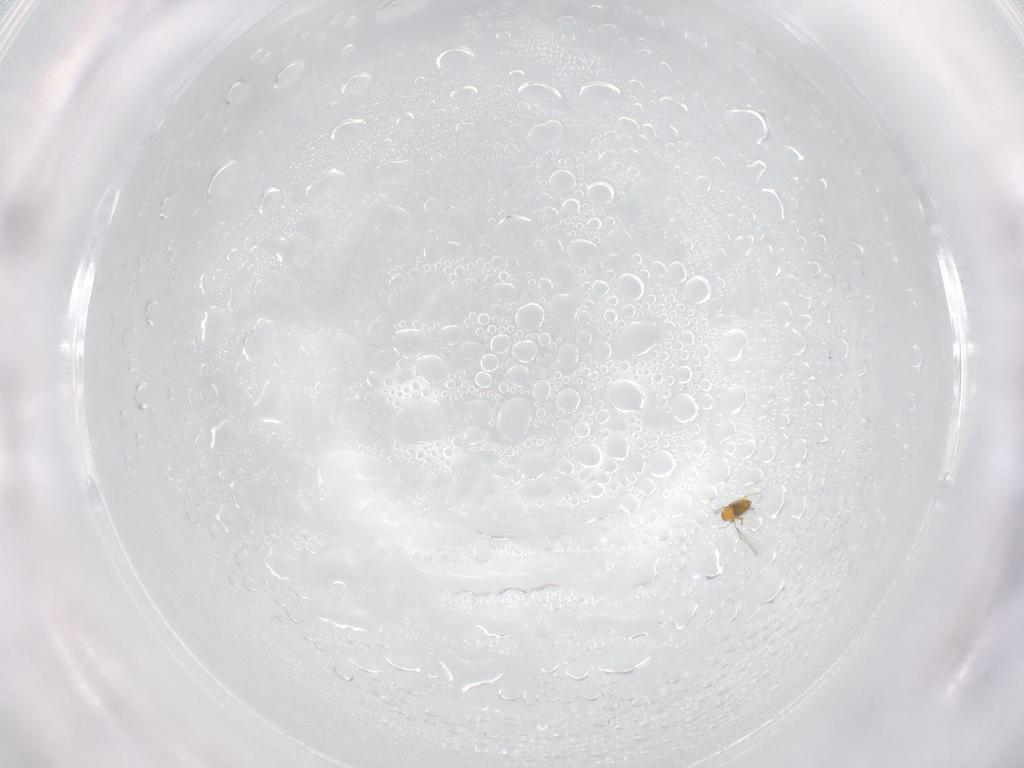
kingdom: Animalia
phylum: Arthropoda
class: Insecta
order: Hymenoptera
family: Trichogrammatidae
